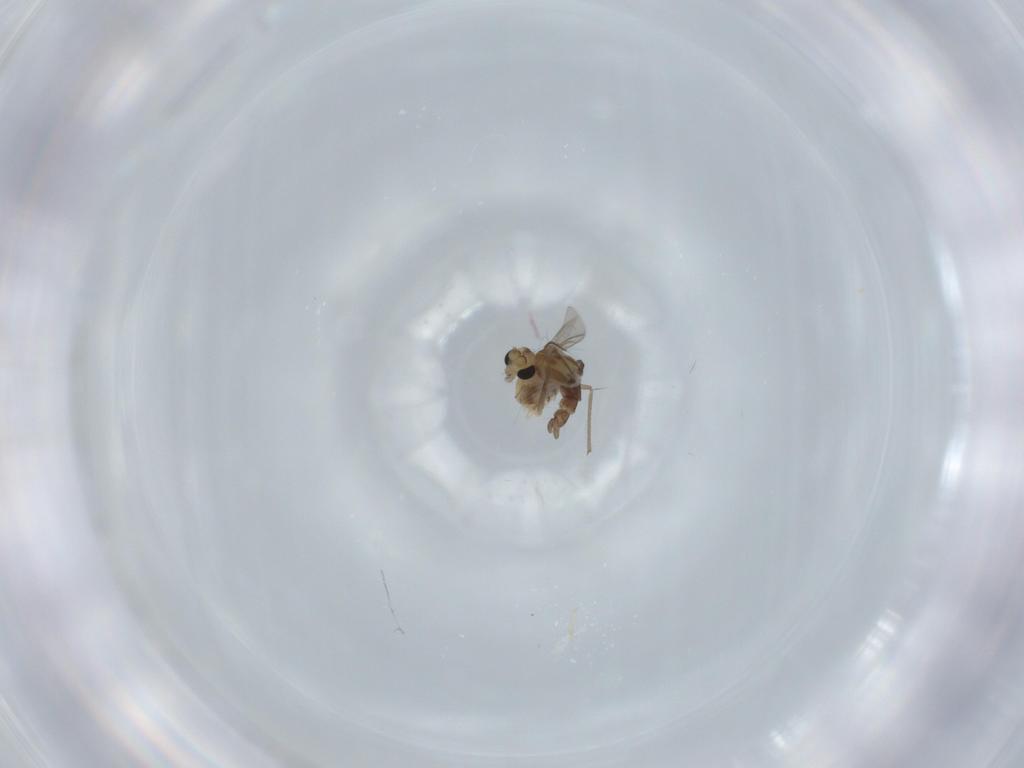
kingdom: Animalia
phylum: Arthropoda
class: Insecta
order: Diptera
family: Chironomidae
